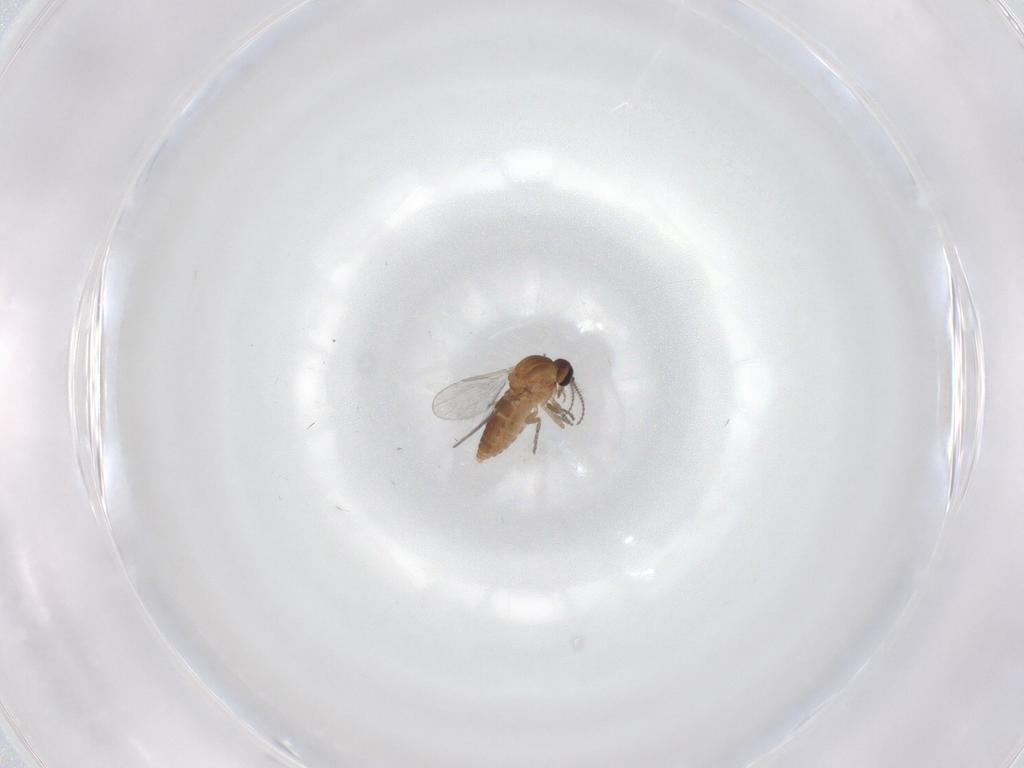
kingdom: Animalia
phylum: Arthropoda
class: Insecta
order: Diptera
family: Ceratopogonidae
